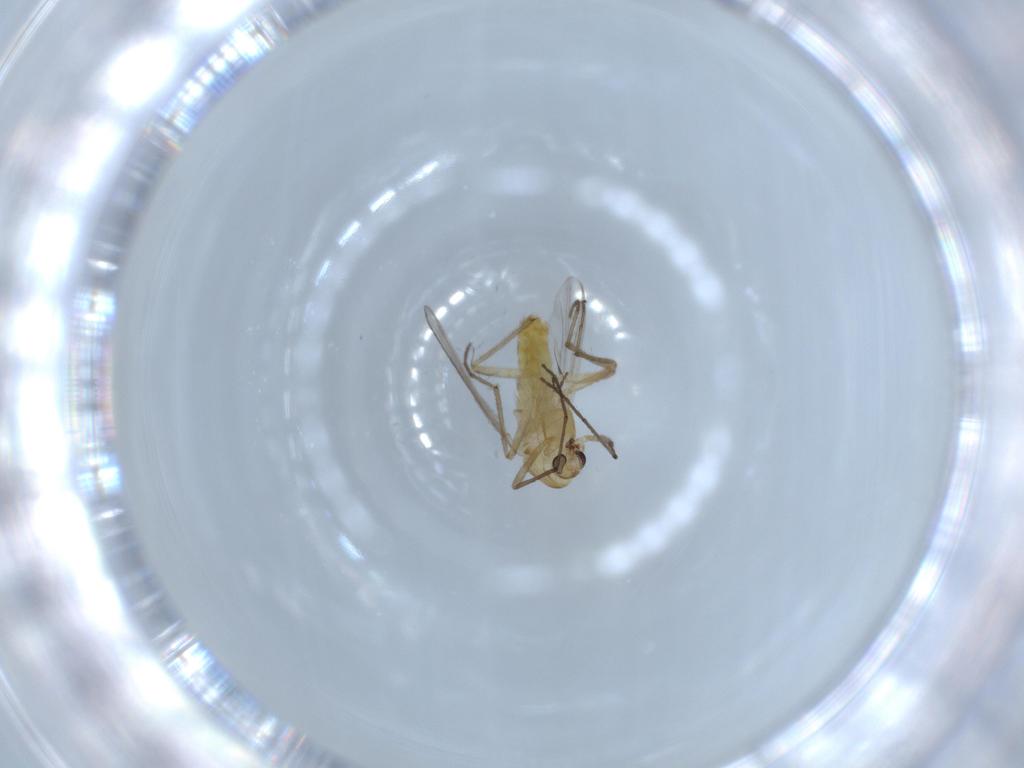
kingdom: Animalia
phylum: Arthropoda
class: Insecta
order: Diptera
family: Chironomidae
